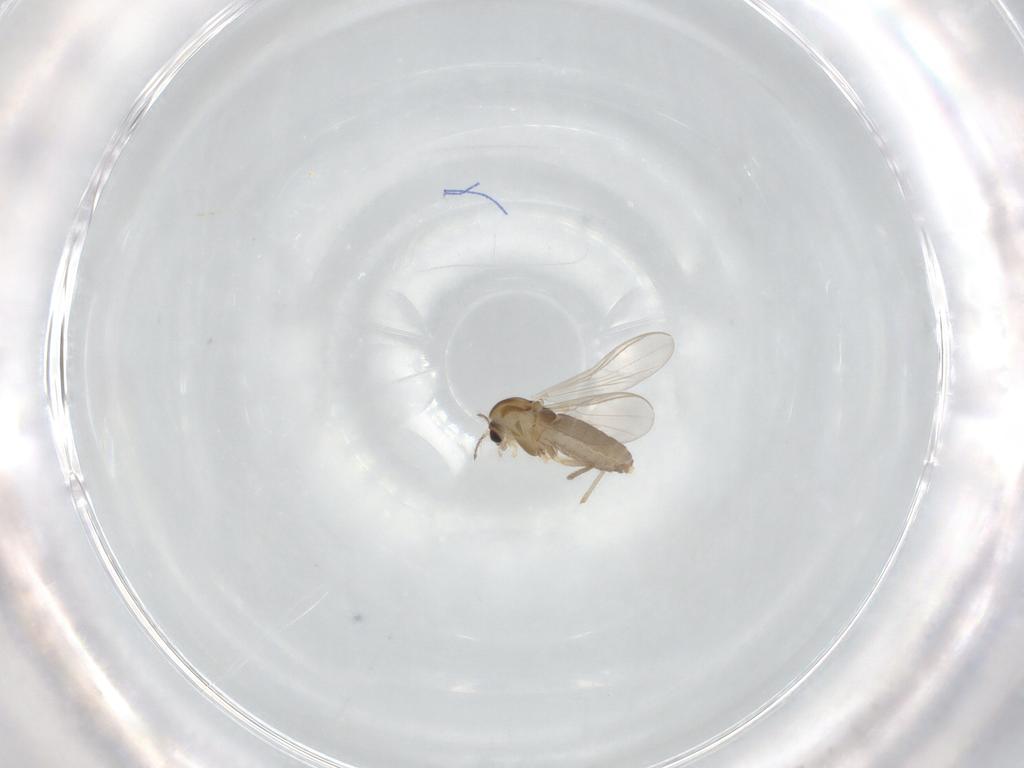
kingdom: Animalia
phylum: Arthropoda
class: Insecta
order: Diptera
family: Chironomidae
